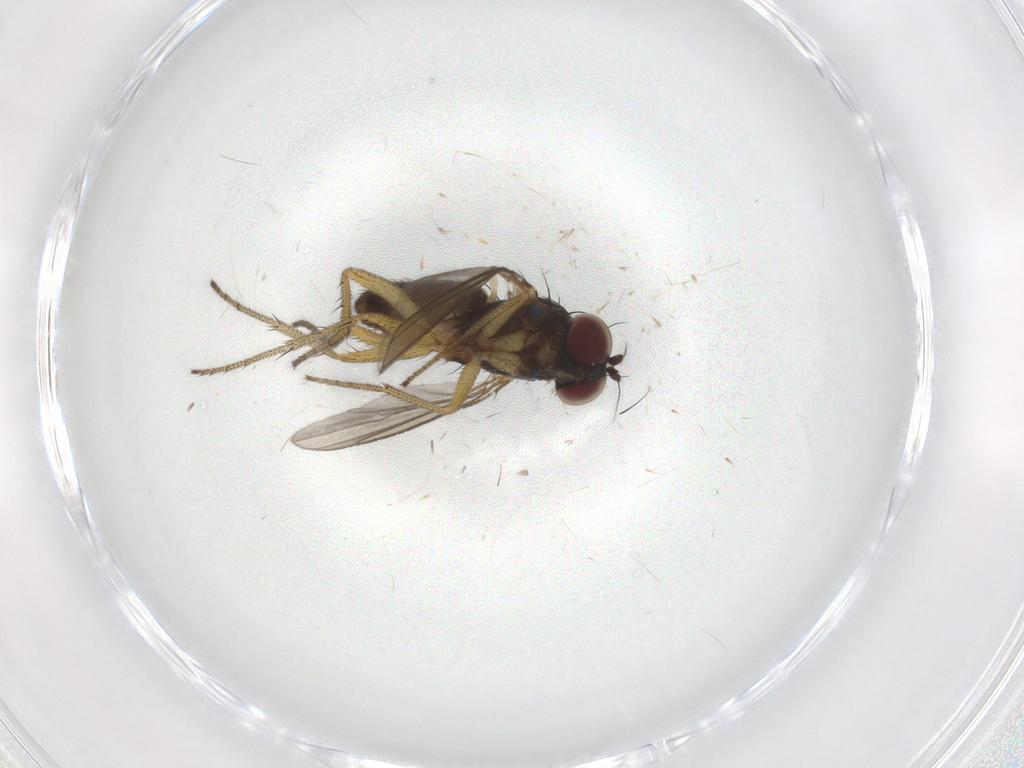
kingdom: Animalia
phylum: Arthropoda
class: Insecta
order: Diptera
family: Dolichopodidae
